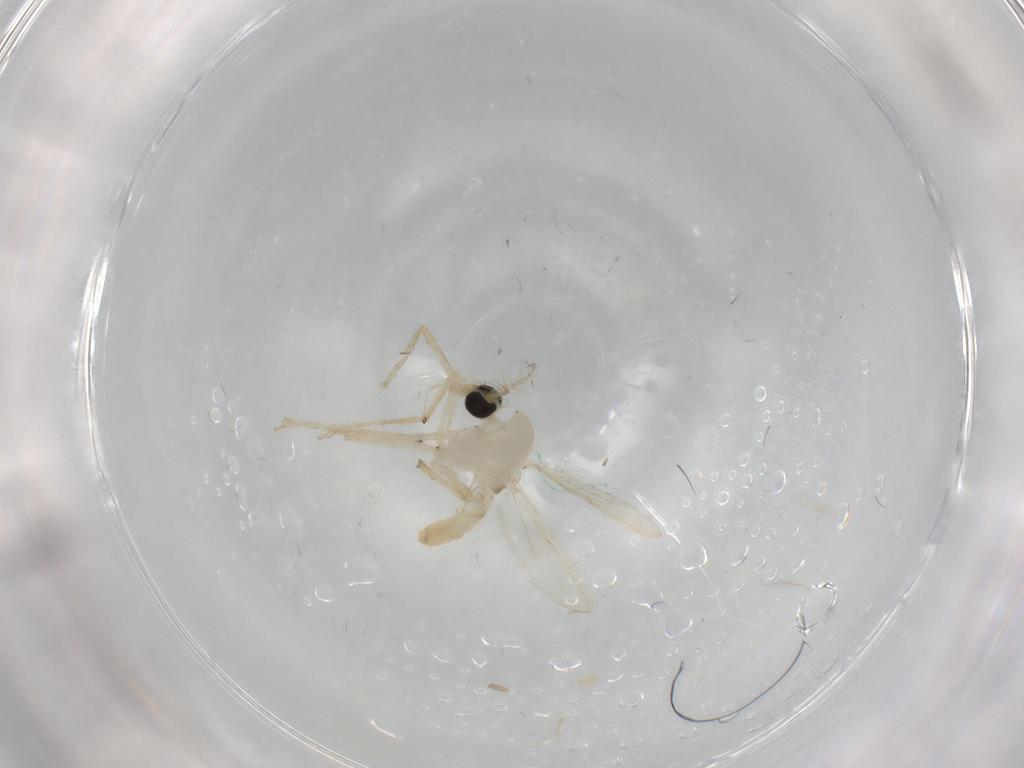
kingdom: Animalia
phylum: Arthropoda
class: Insecta
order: Diptera
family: Chironomidae
